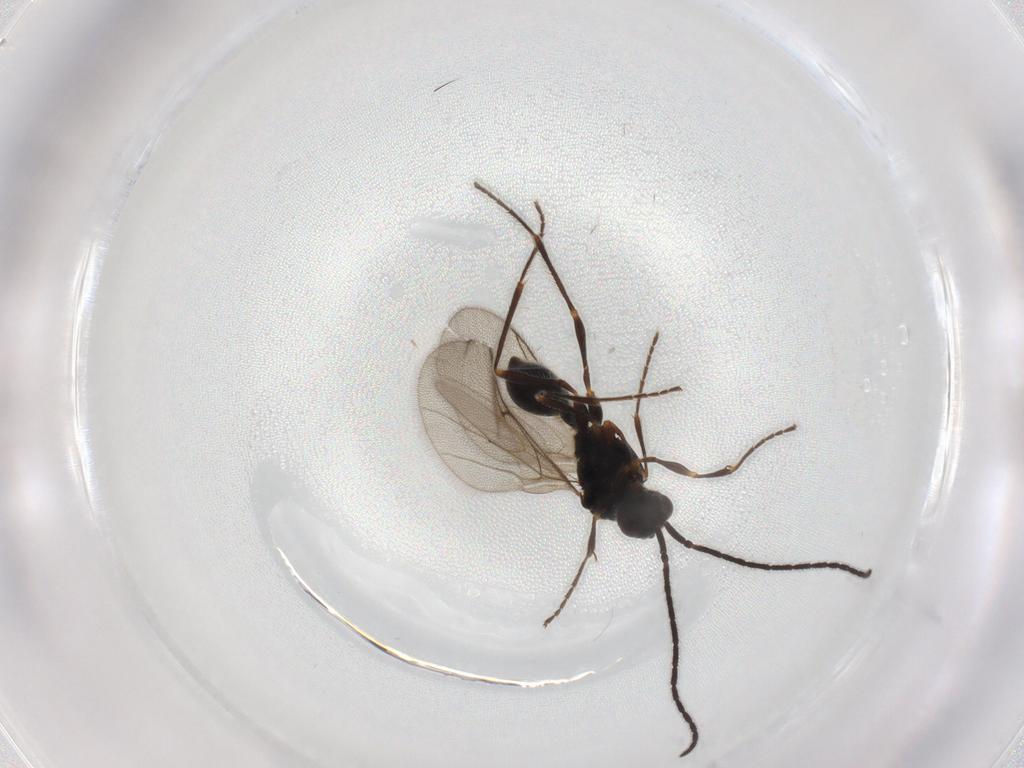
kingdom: Animalia
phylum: Arthropoda
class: Insecta
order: Hymenoptera
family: Diapriidae
